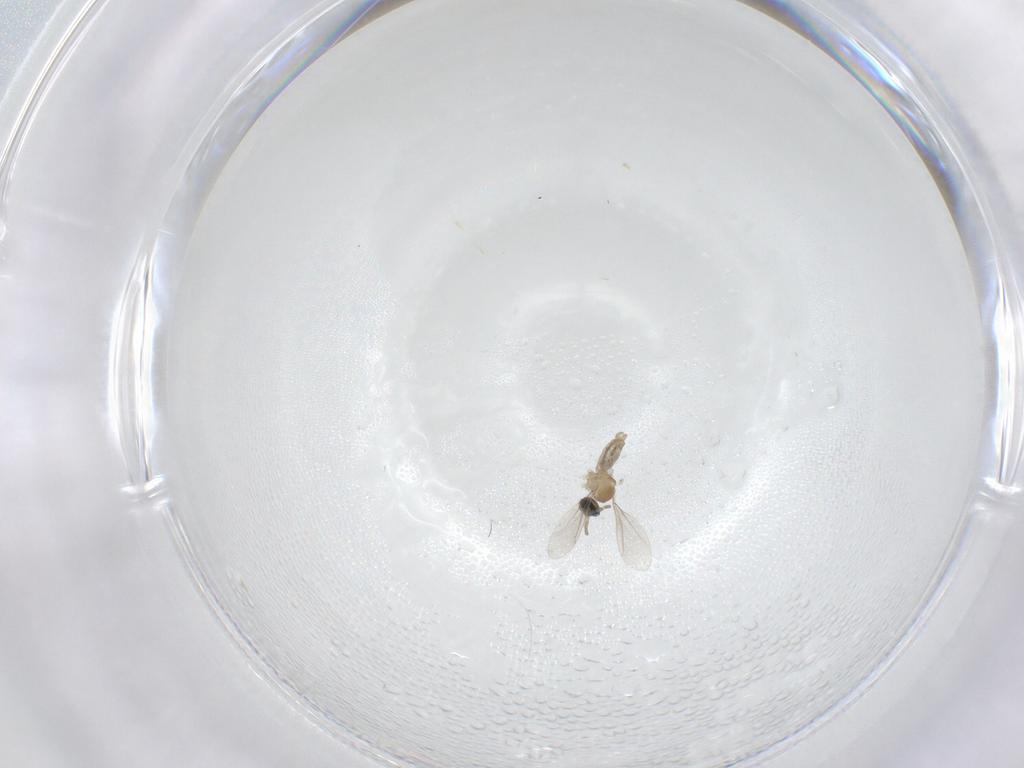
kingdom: Animalia
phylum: Arthropoda
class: Insecta
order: Diptera
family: Cecidomyiidae
